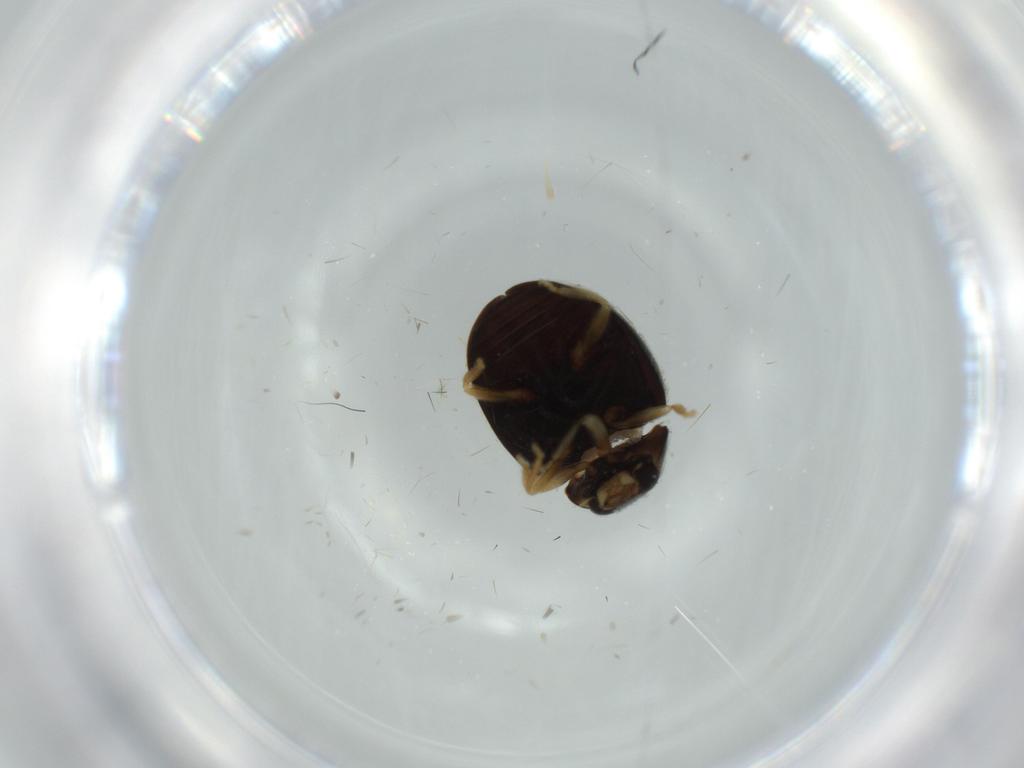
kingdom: Animalia
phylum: Arthropoda
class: Insecta
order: Coleoptera
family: Coccinellidae
